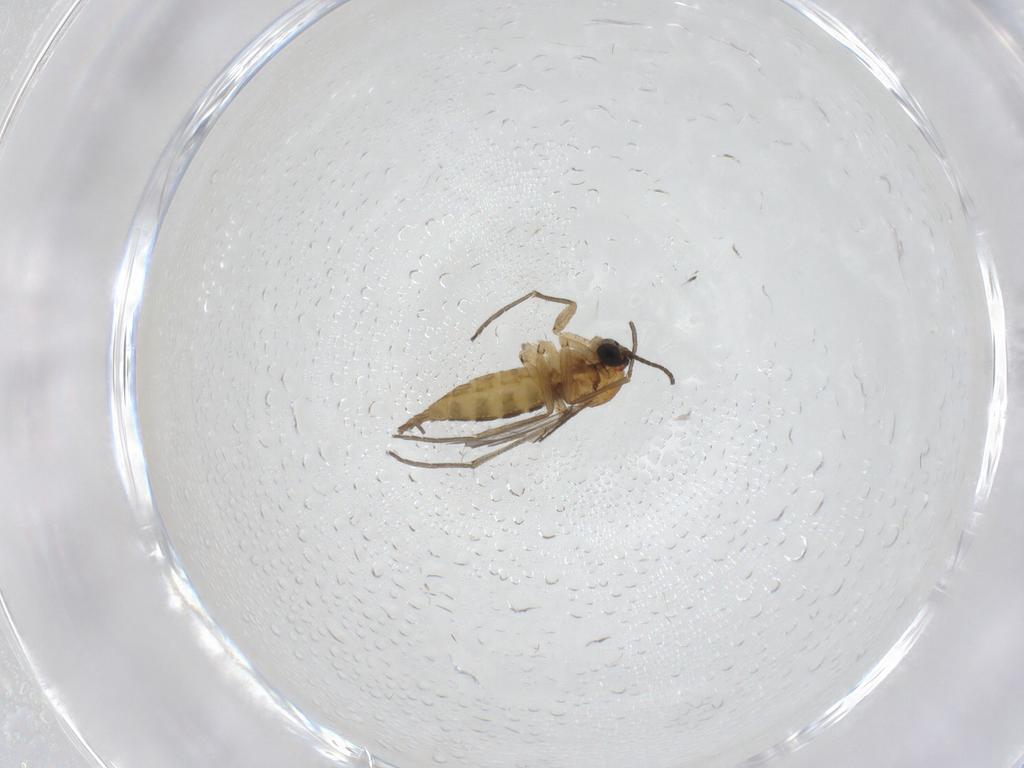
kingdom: Animalia
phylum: Arthropoda
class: Insecta
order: Diptera
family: Sciaridae
